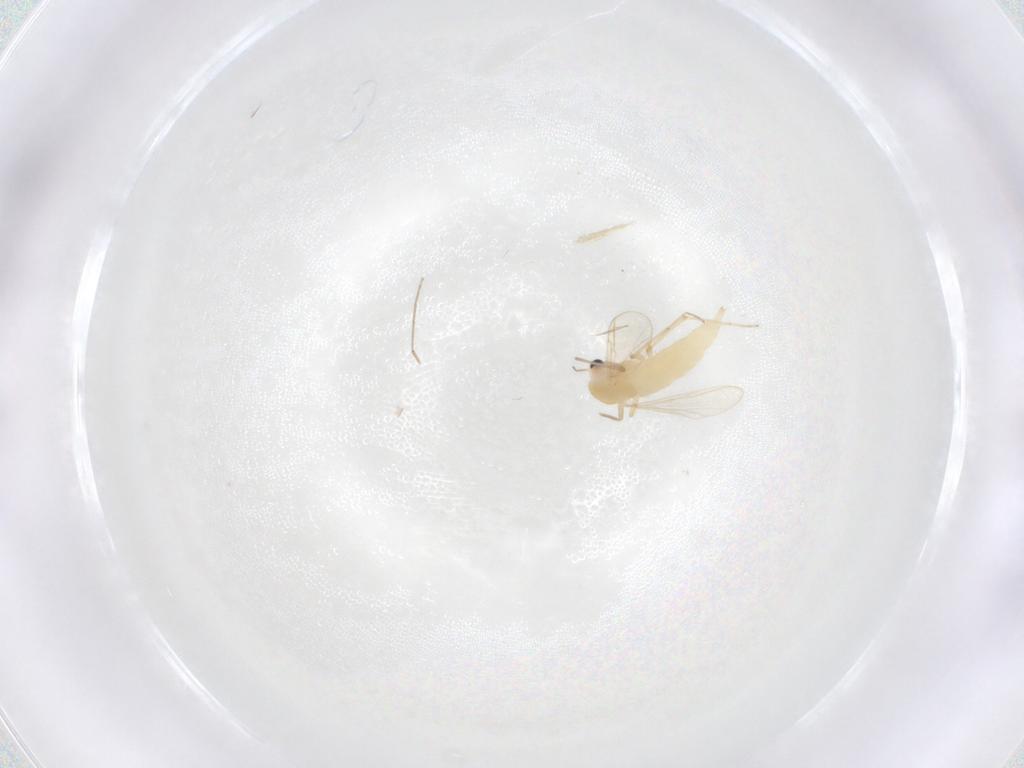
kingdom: Animalia
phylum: Arthropoda
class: Insecta
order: Diptera
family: Chironomidae
